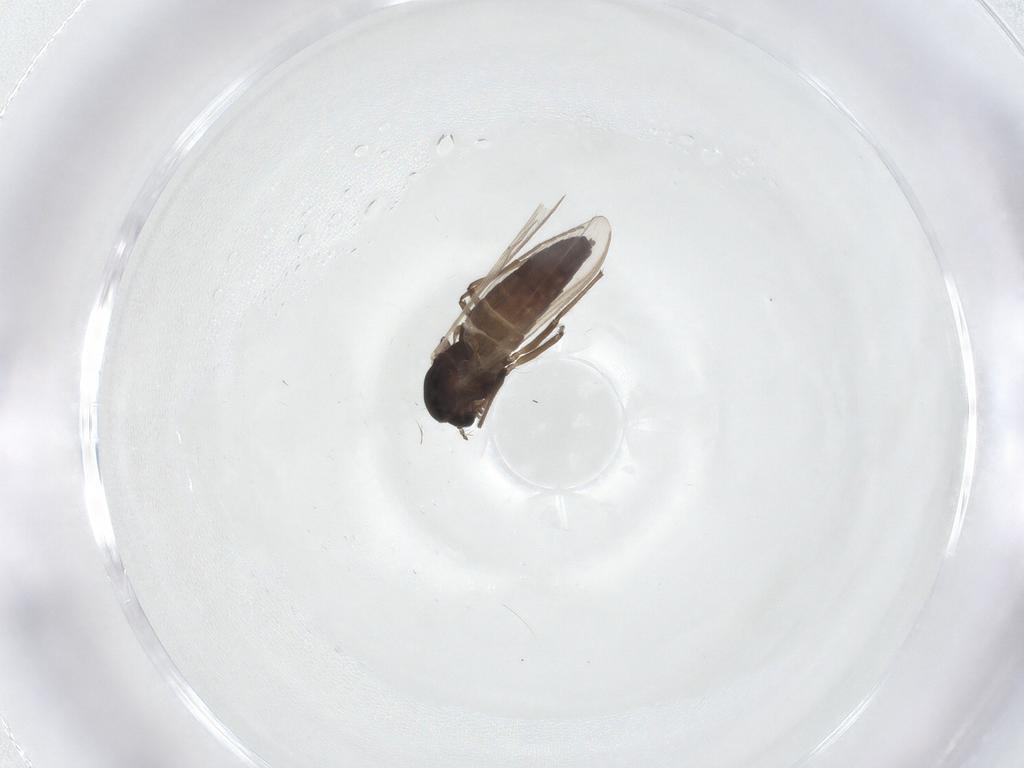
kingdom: Animalia
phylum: Arthropoda
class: Insecta
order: Diptera
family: Chironomidae
